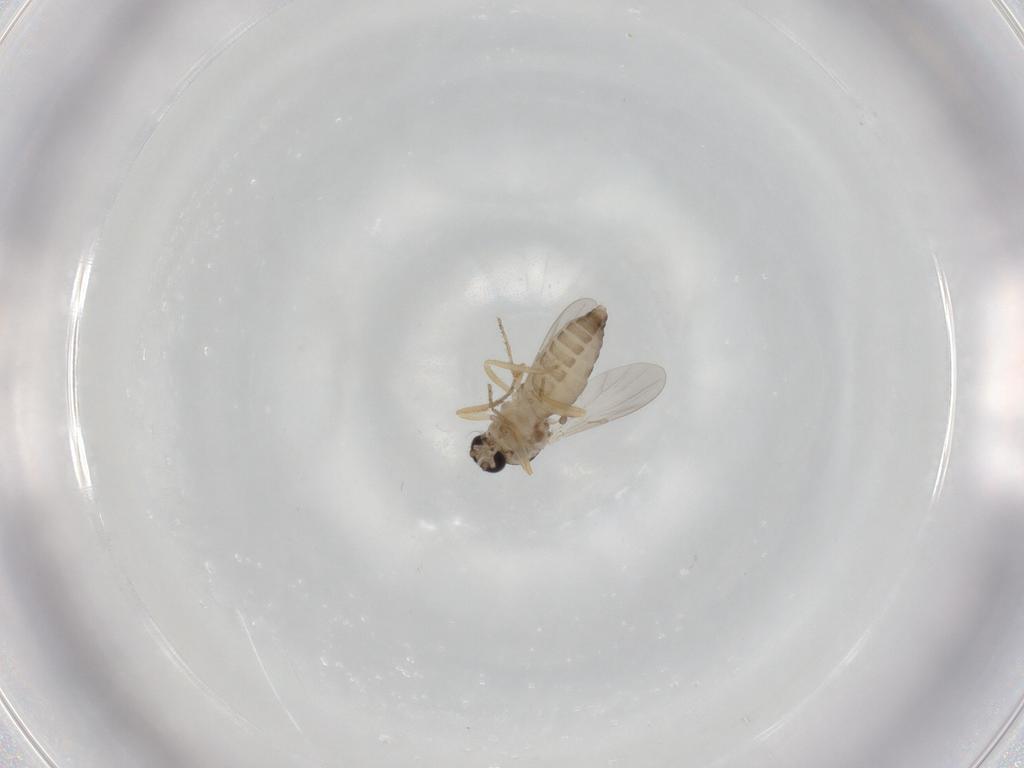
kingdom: Animalia
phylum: Arthropoda
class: Insecta
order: Diptera
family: Ceratopogonidae
